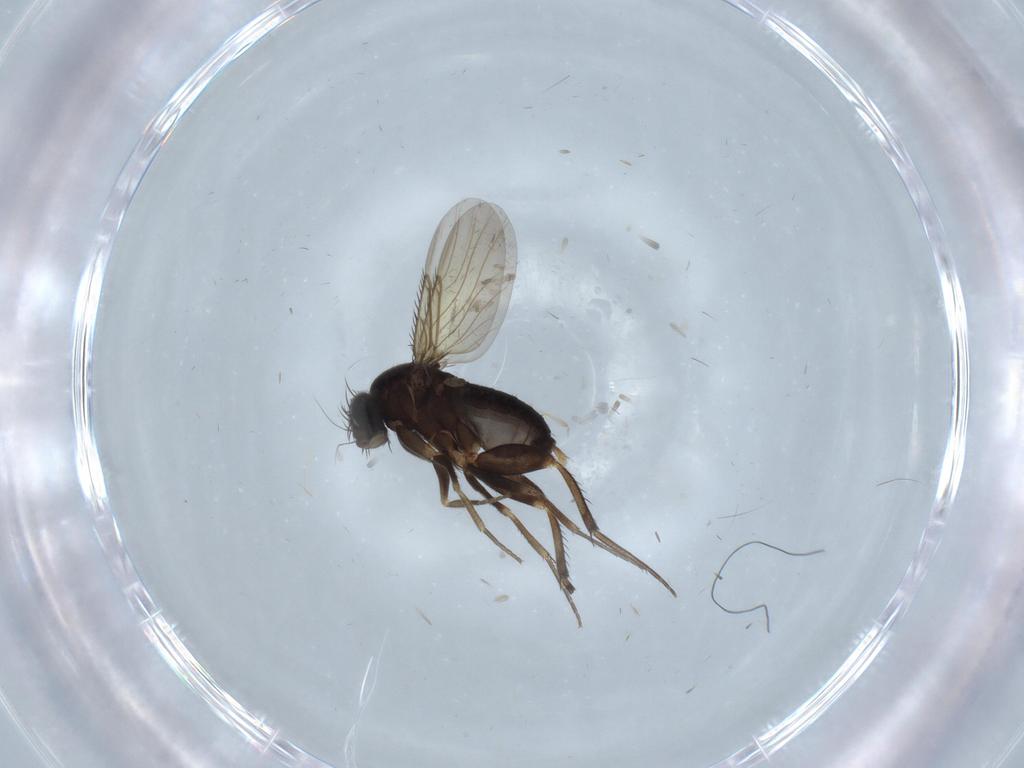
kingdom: Animalia
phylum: Arthropoda
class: Insecta
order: Diptera
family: Phoridae
